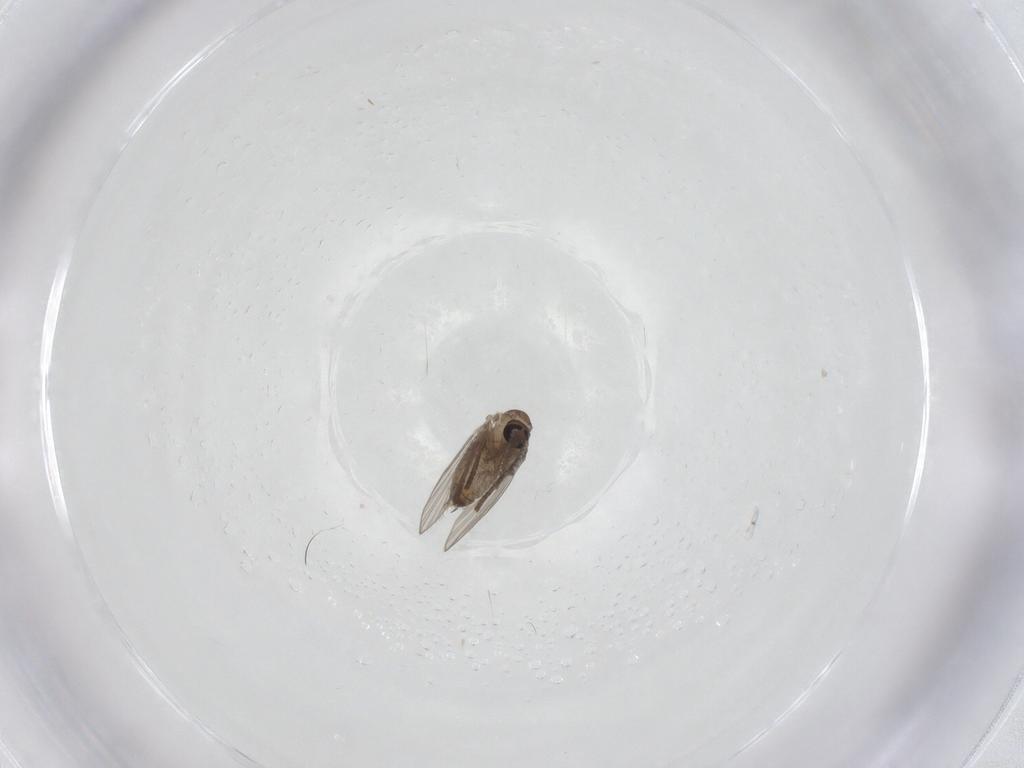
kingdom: Animalia
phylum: Arthropoda
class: Insecta
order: Diptera
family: Chironomidae
